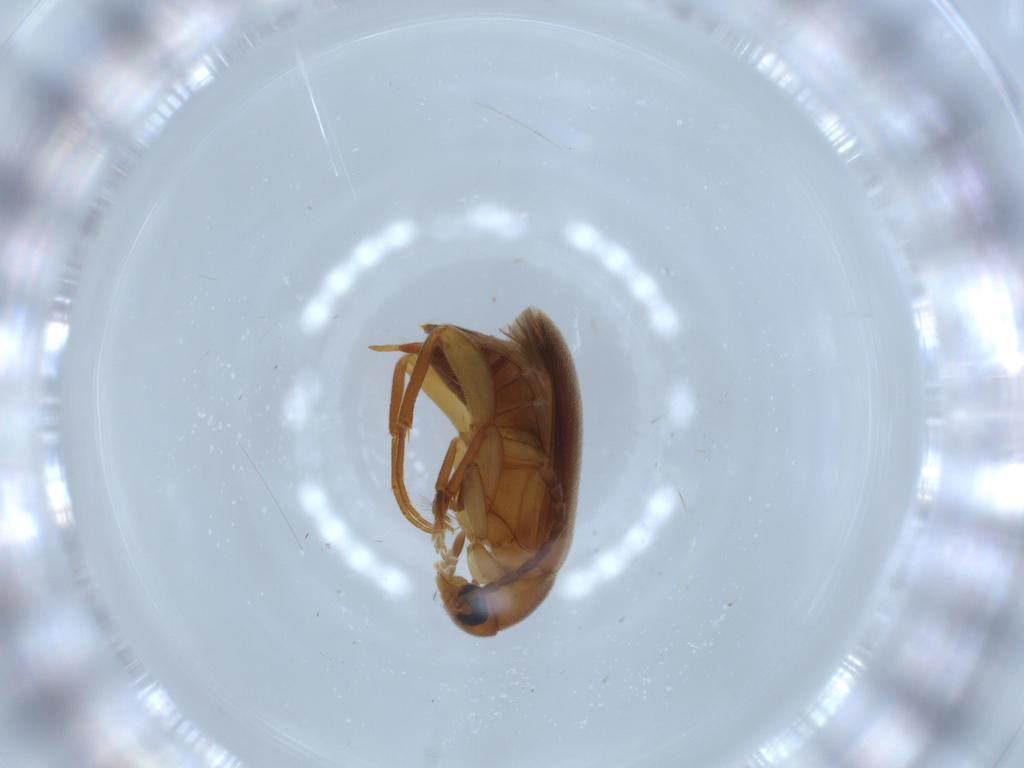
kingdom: Animalia
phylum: Arthropoda
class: Insecta
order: Coleoptera
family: Scraptiidae
